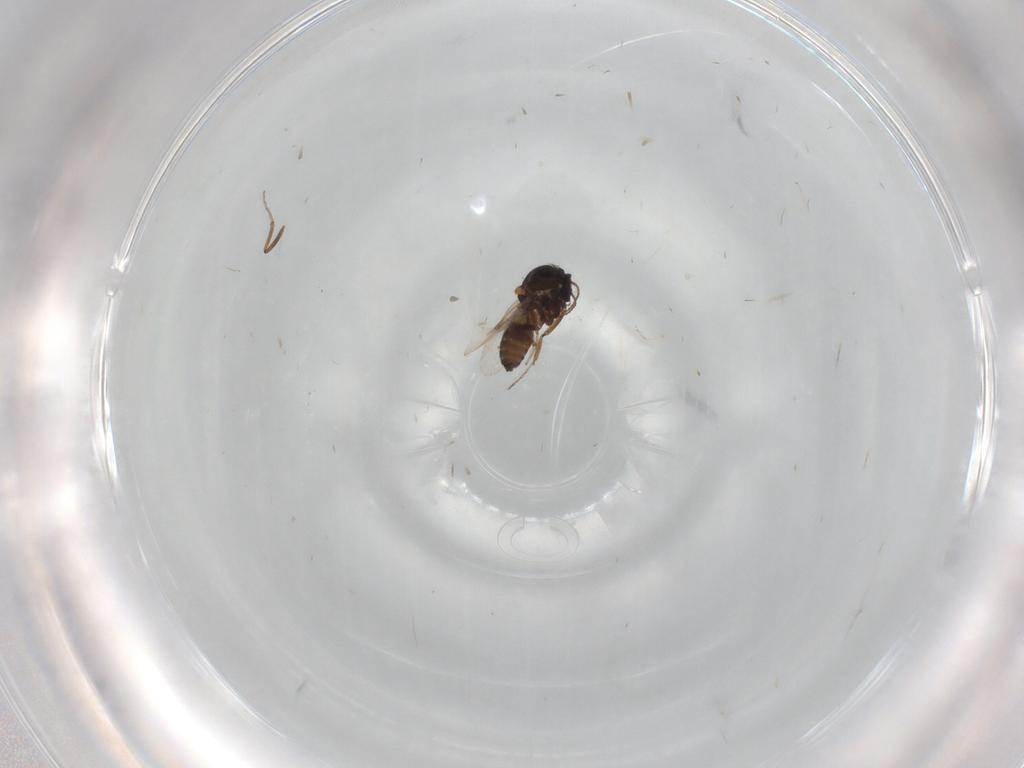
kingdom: Animalia
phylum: Arthropoda
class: Insecta
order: Diptera
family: Ceratopogonidae
